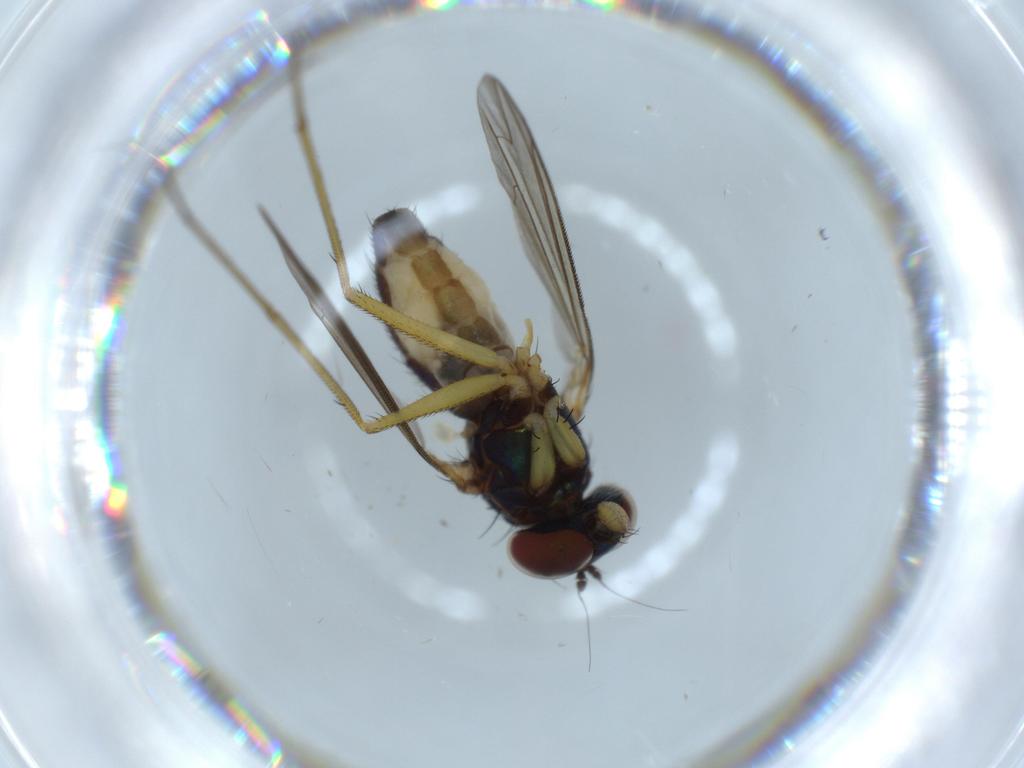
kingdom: Animalia
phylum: Arthropoda
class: Insecta
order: Diptera
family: Dolichopodidae
